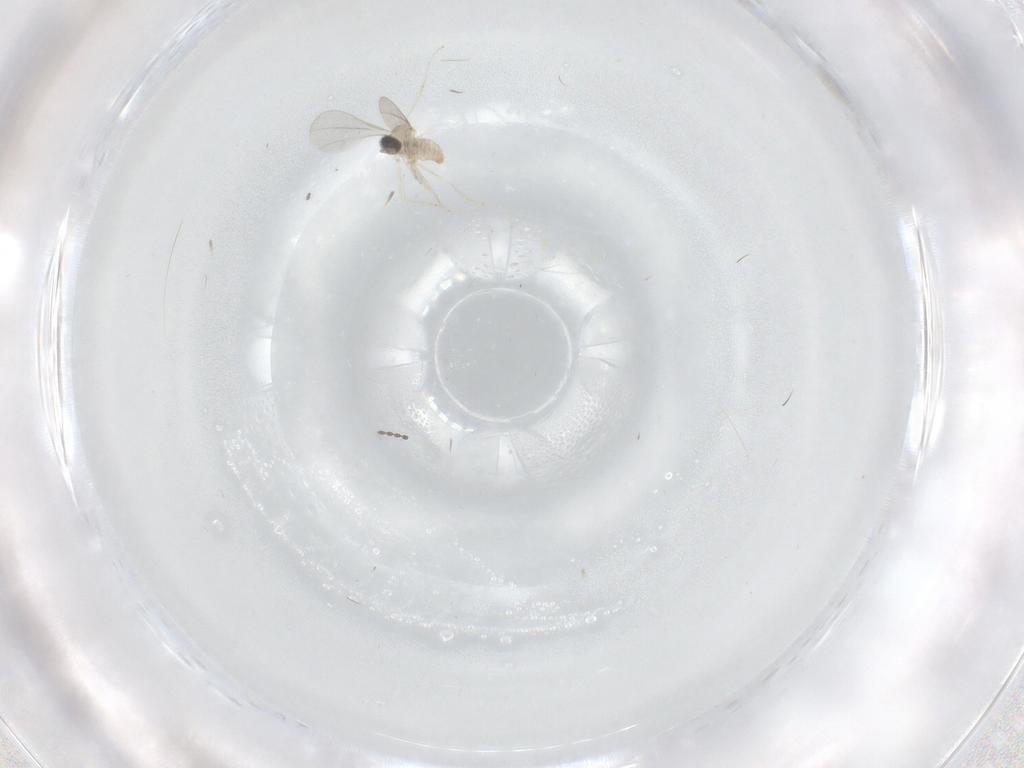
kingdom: Animalia
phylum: Arthropoda
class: Insecta
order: Diptera
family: Cecidomyiidae
